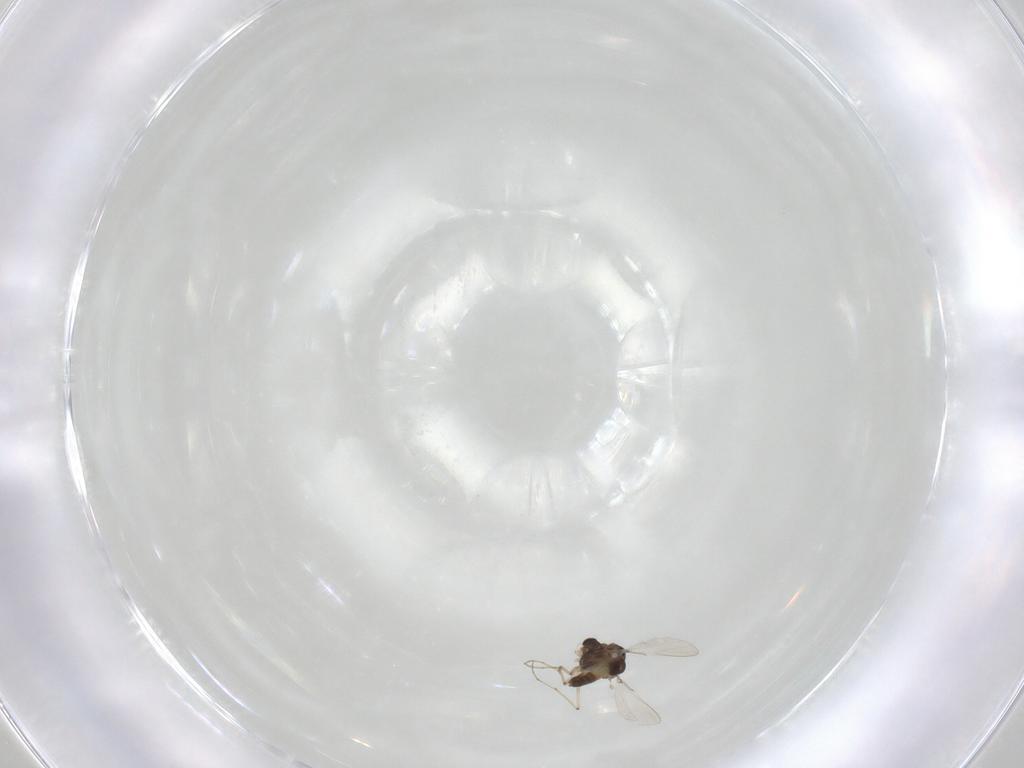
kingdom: Animalia
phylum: Arthropoda
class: Insecta
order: Diptera
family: Chironomidae
